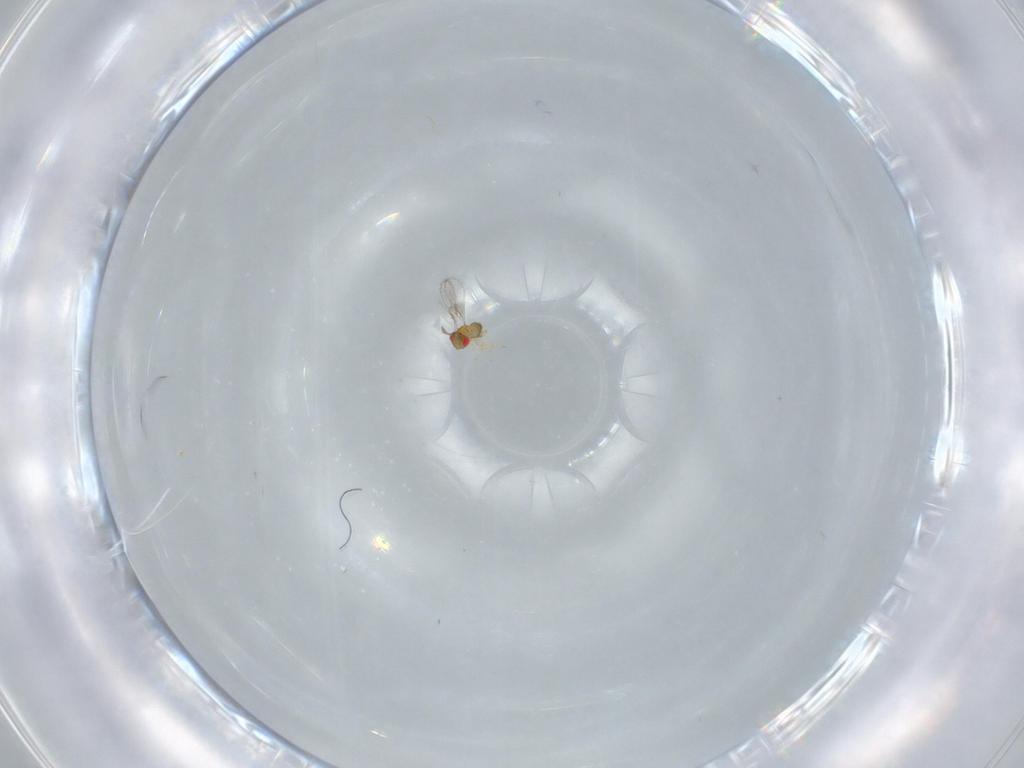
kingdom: Animalia
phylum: Arthropoda
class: Insecta
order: Hymenoptera
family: Trichogrammatidae
